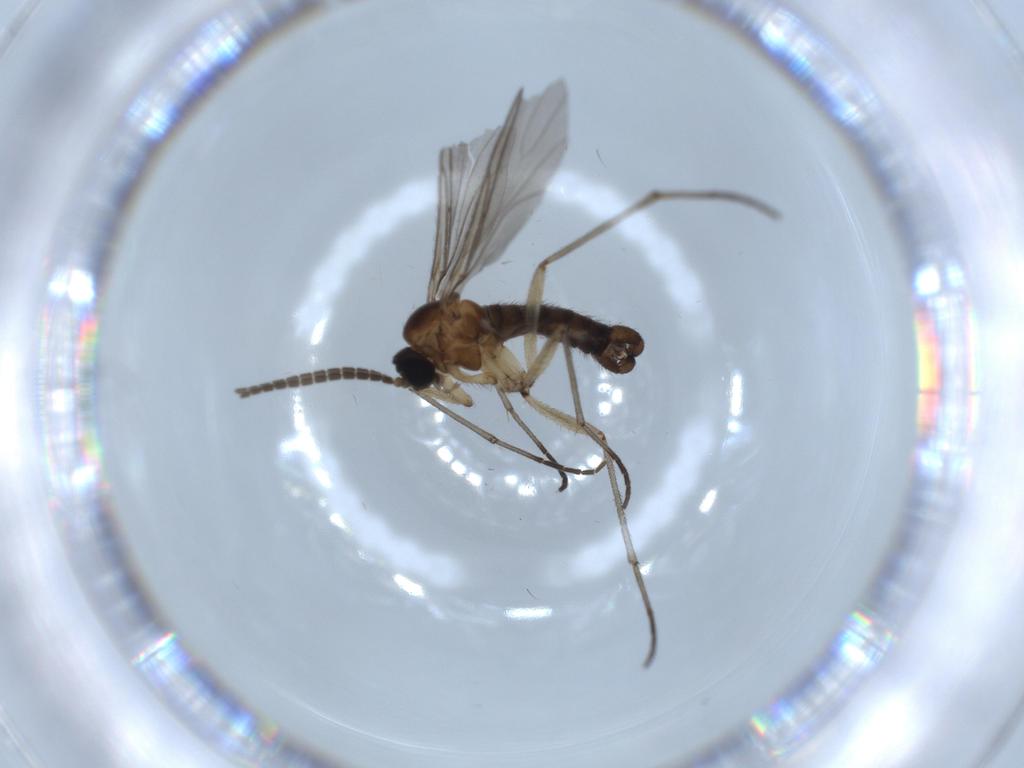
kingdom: Animalia
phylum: Arthropoda
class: Insecta
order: Diptera
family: Sciaridae
